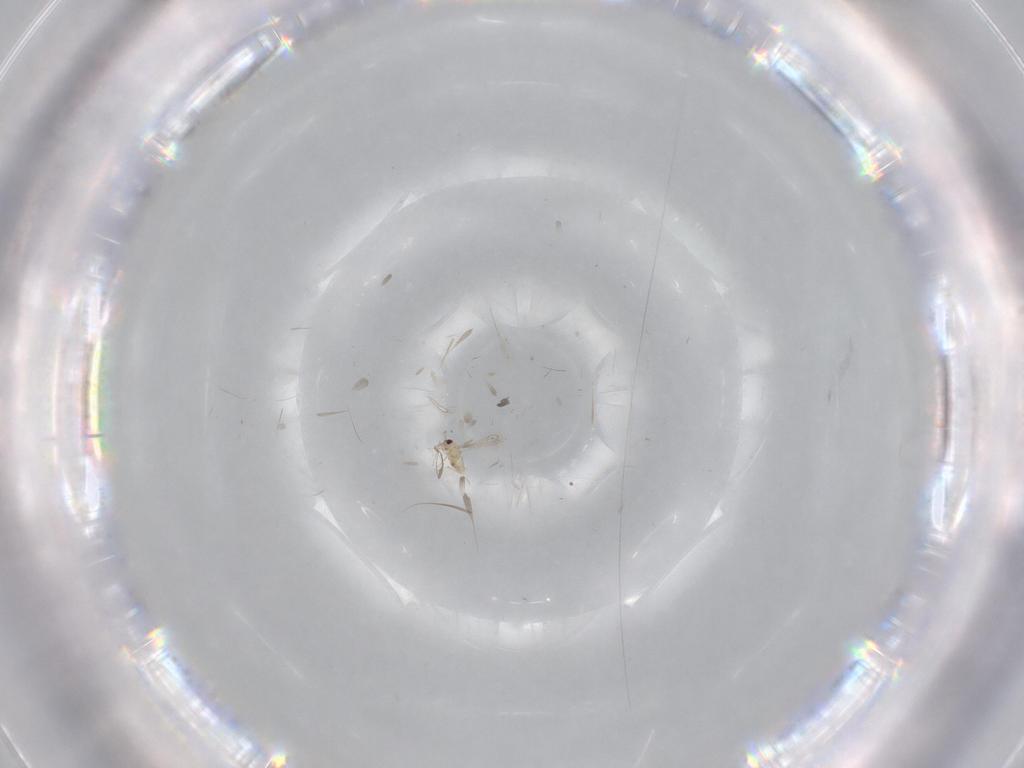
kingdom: Animalia
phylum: Arthropoda
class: Insecta
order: Hymenoptera
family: Mymaridae
